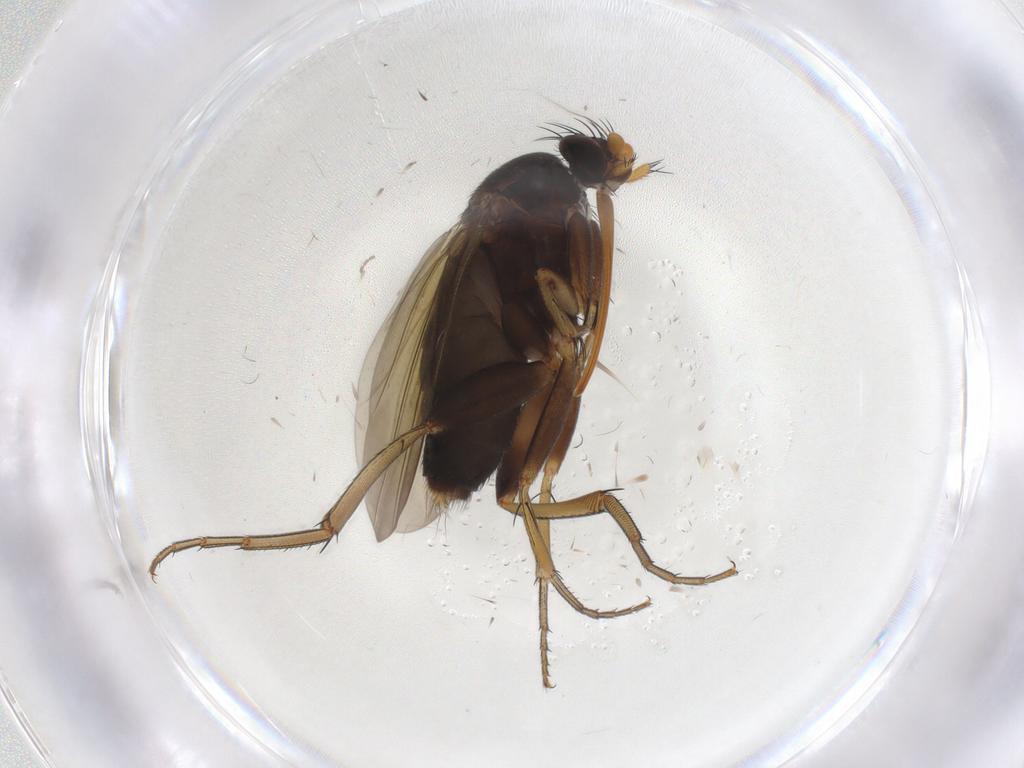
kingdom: Animalia
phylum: Arthropoda
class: Insecta
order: Diptera
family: Phoridae
